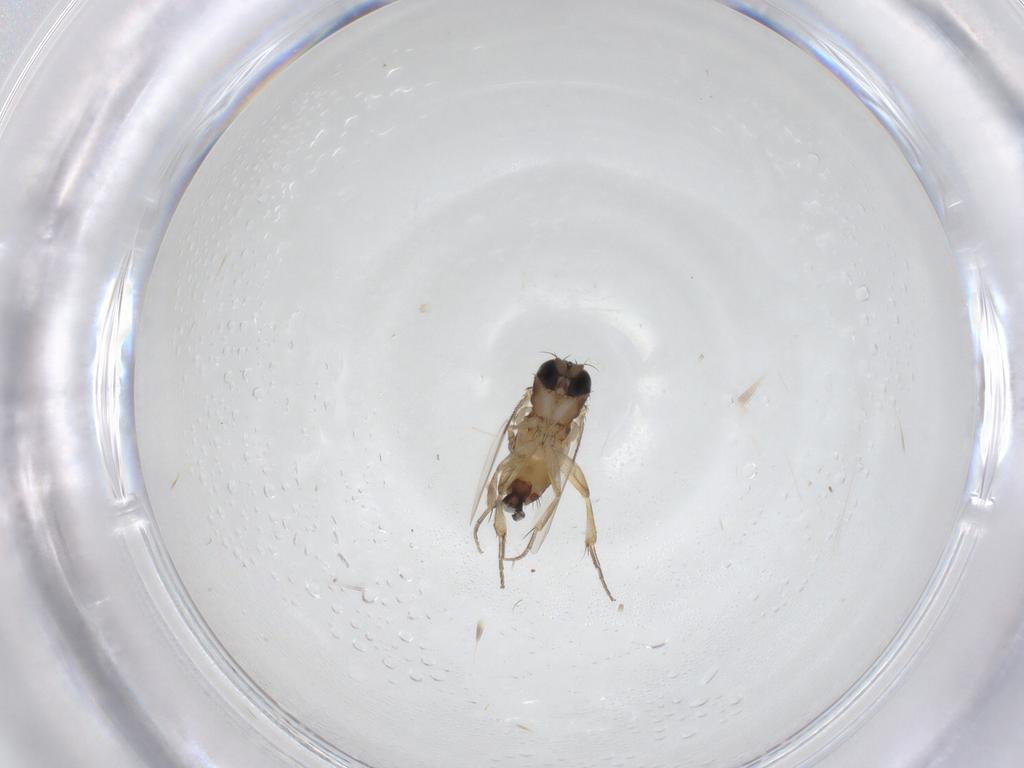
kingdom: Animalia
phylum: Arthropoda
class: Insecta
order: Diptera
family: Phoridae
